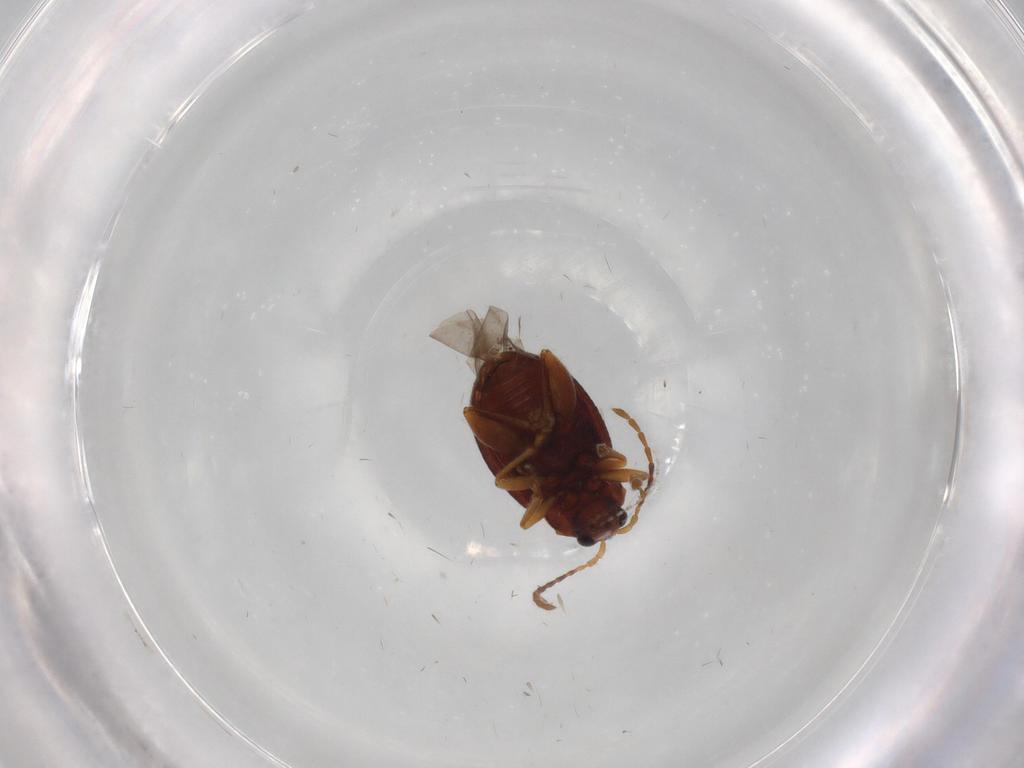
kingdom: Animalia
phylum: Arthropoda
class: Insecta
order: Coleoptera
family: Chrysomelidae
